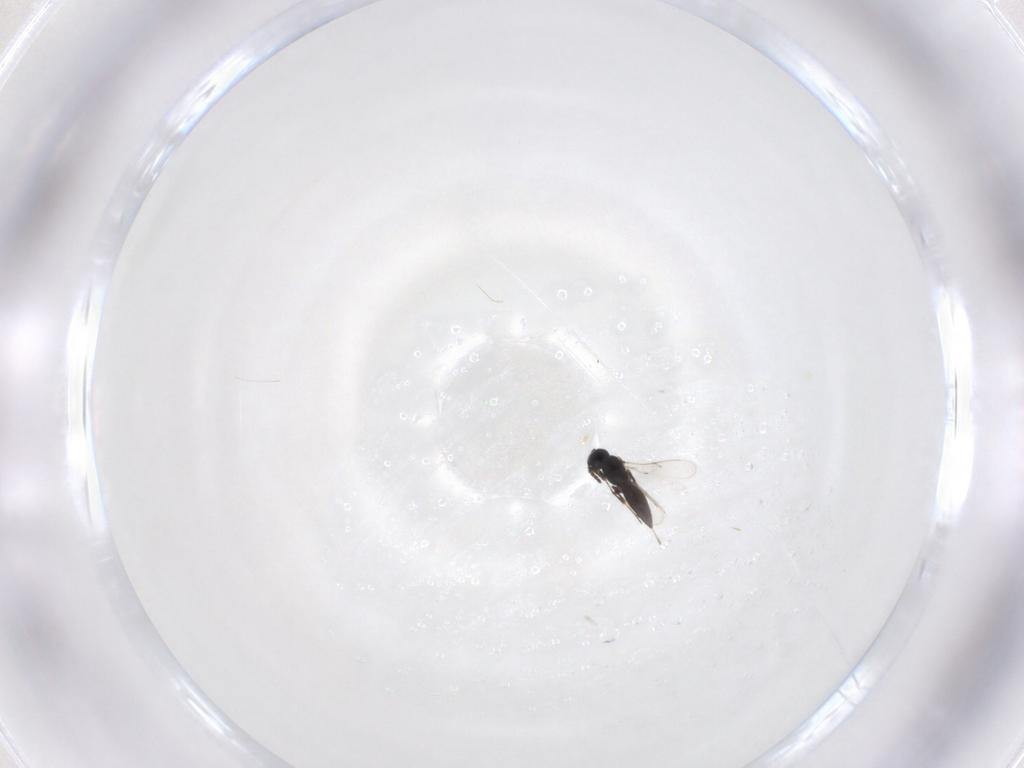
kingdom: Animalia
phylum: Arthropoda
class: Insecta
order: Hymenoptera
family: Scelionidae
